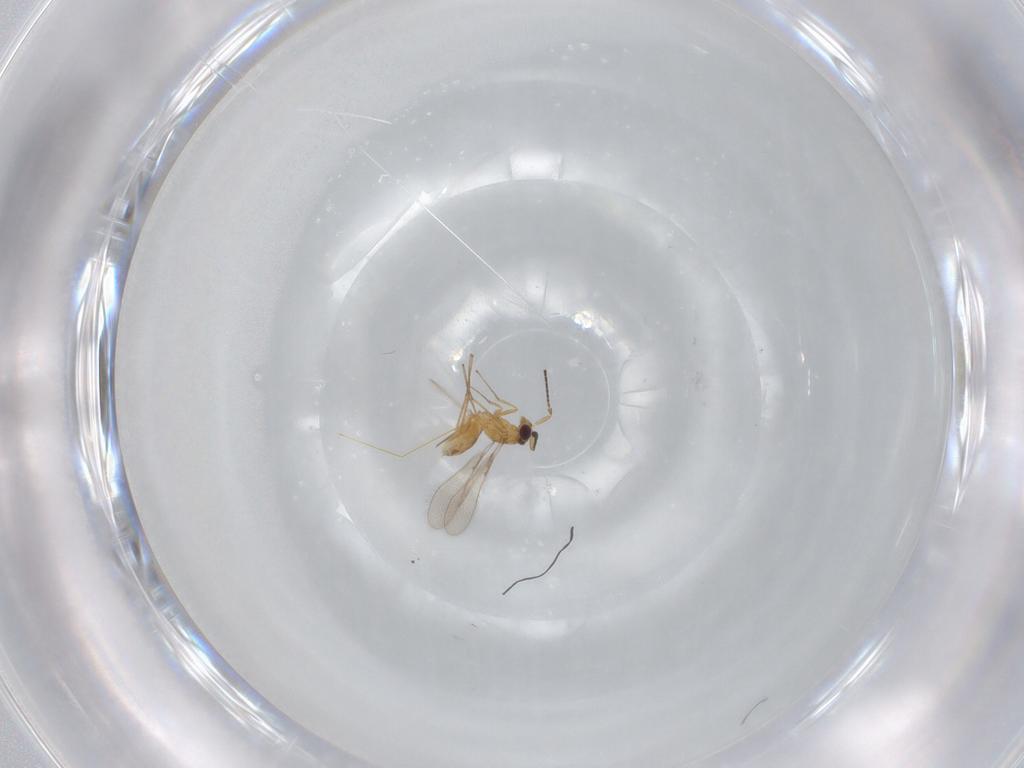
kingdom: Animalia
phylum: Arthropoda
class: Insecta
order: Hymenoptera
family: Mymaridae
